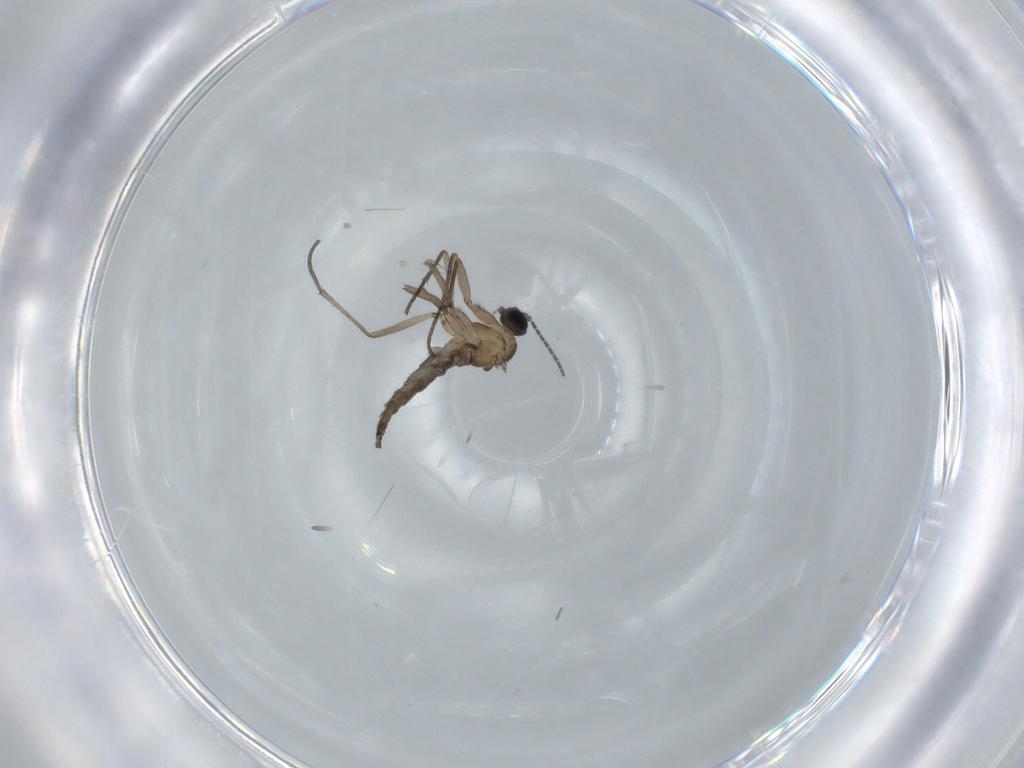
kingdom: Animalia
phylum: Arthropoda
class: Insecta
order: Diptera
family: Cecidomyiidae
